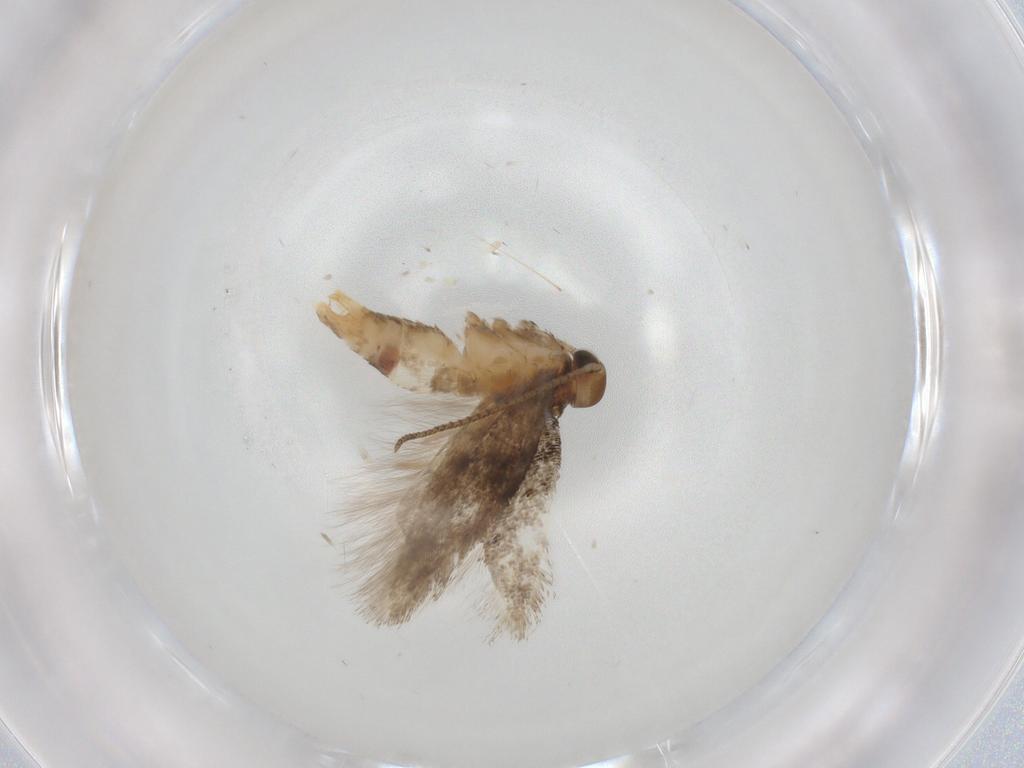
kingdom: Animalia
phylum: Arthropoda
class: Insecta
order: Lepidoptera
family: Gelechiidae
